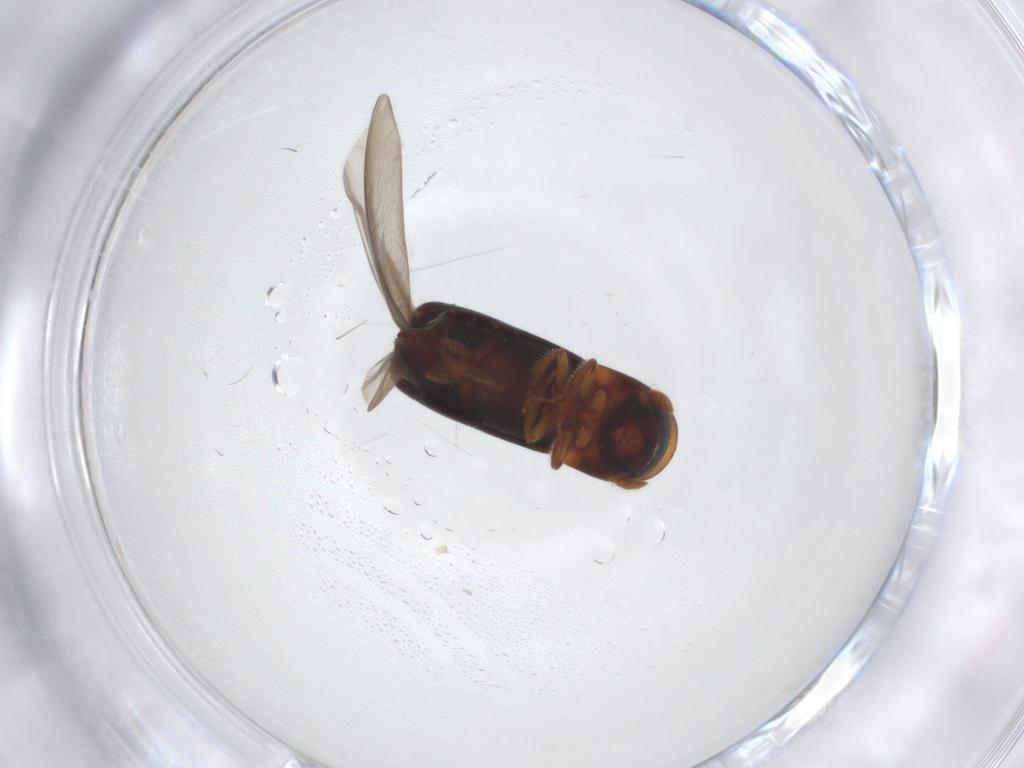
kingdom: Animalia
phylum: Arthropoda
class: Insecta
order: Coleoptera
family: Curculionidae
